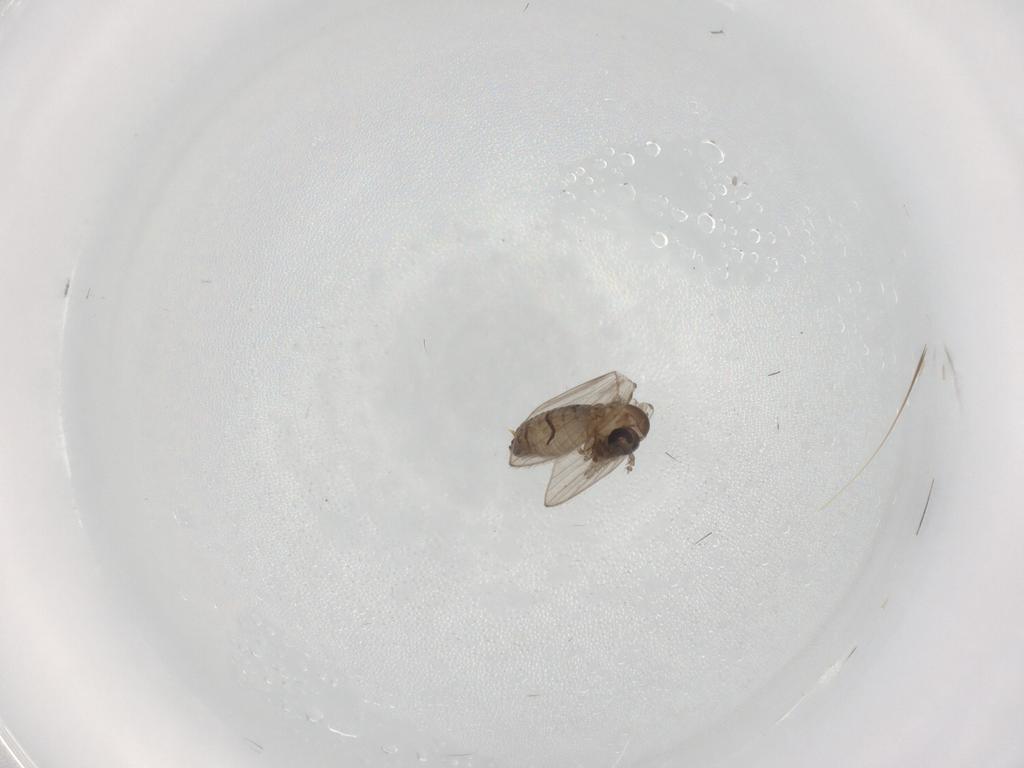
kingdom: Animalia
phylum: Arthropoda
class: Insecta
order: Diptera
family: Psychodidae
